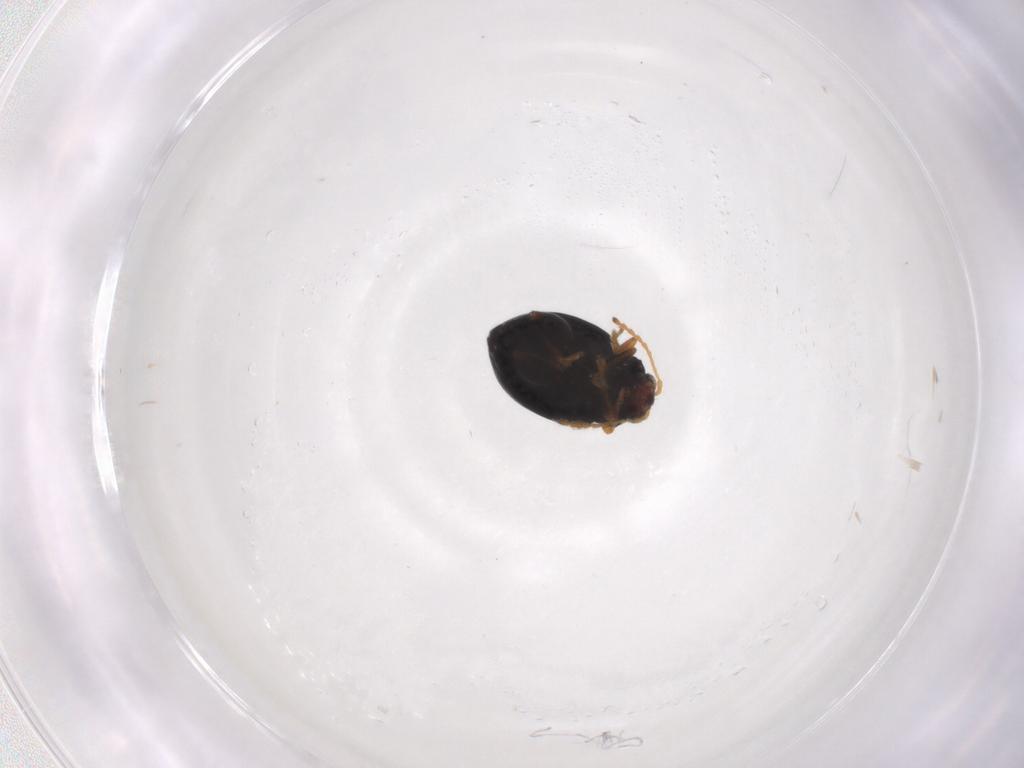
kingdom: Animalia
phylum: Arthropoda
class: Insecta
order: Coleoptera
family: Chrysomelidae
